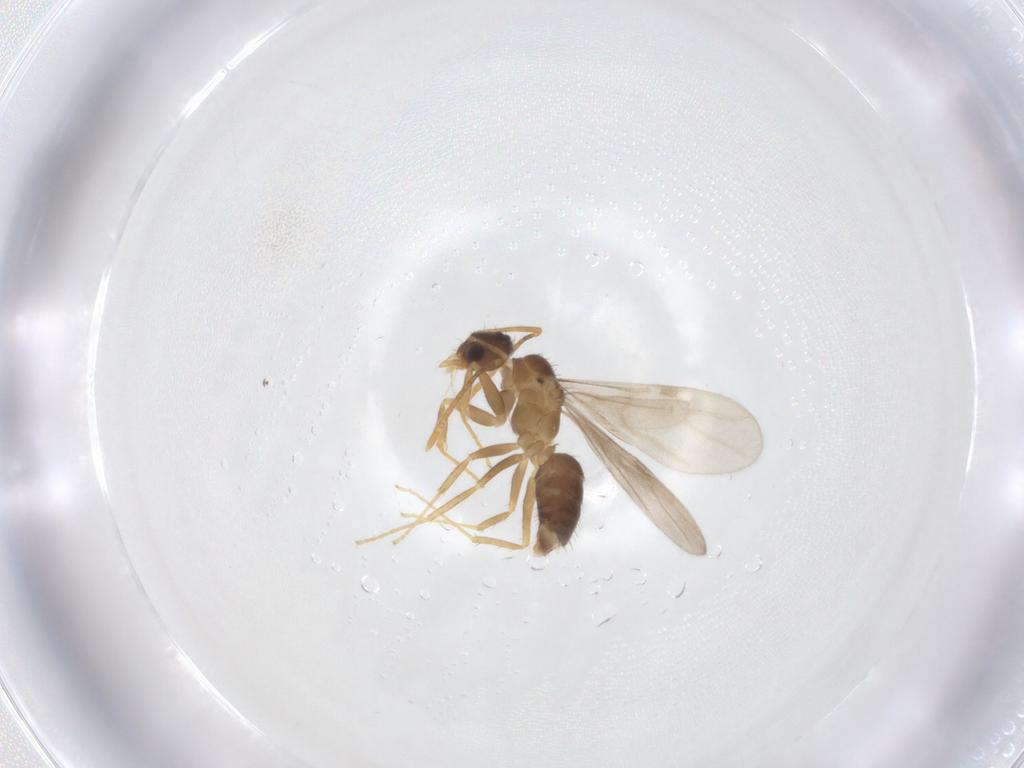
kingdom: Animalia
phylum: Arthropoda
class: Insecta
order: Hymenoptera
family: Formicidae
